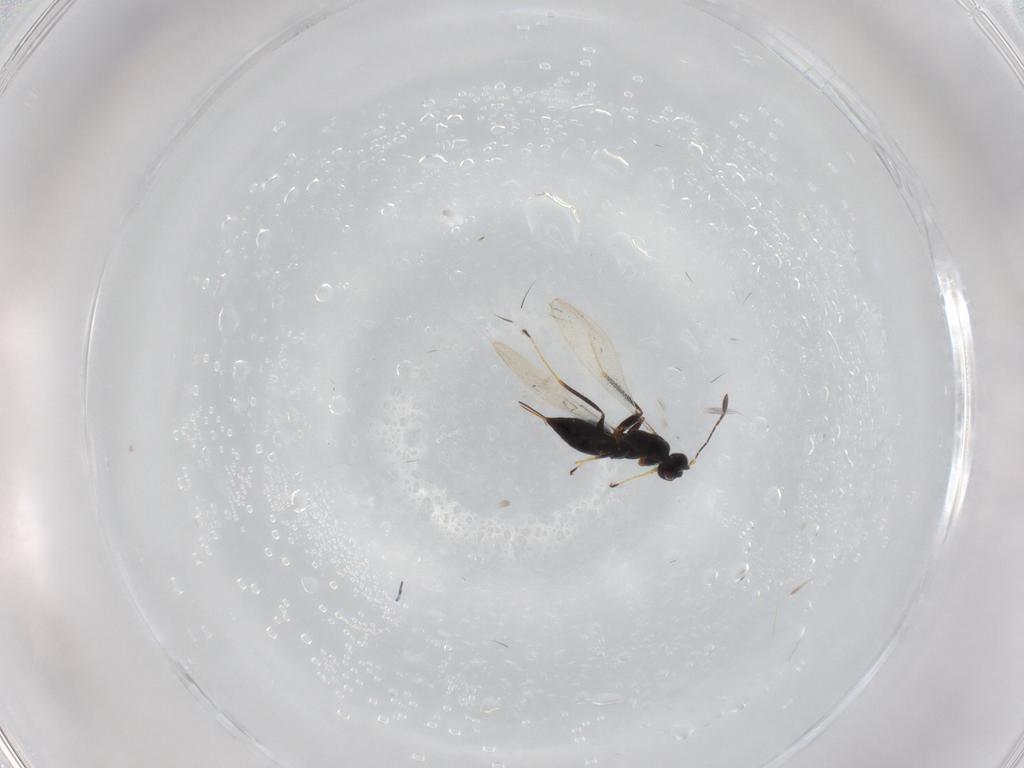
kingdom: Animalia
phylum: Arthropoda
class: Insecta
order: Hymenoptera
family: Mymaridae
